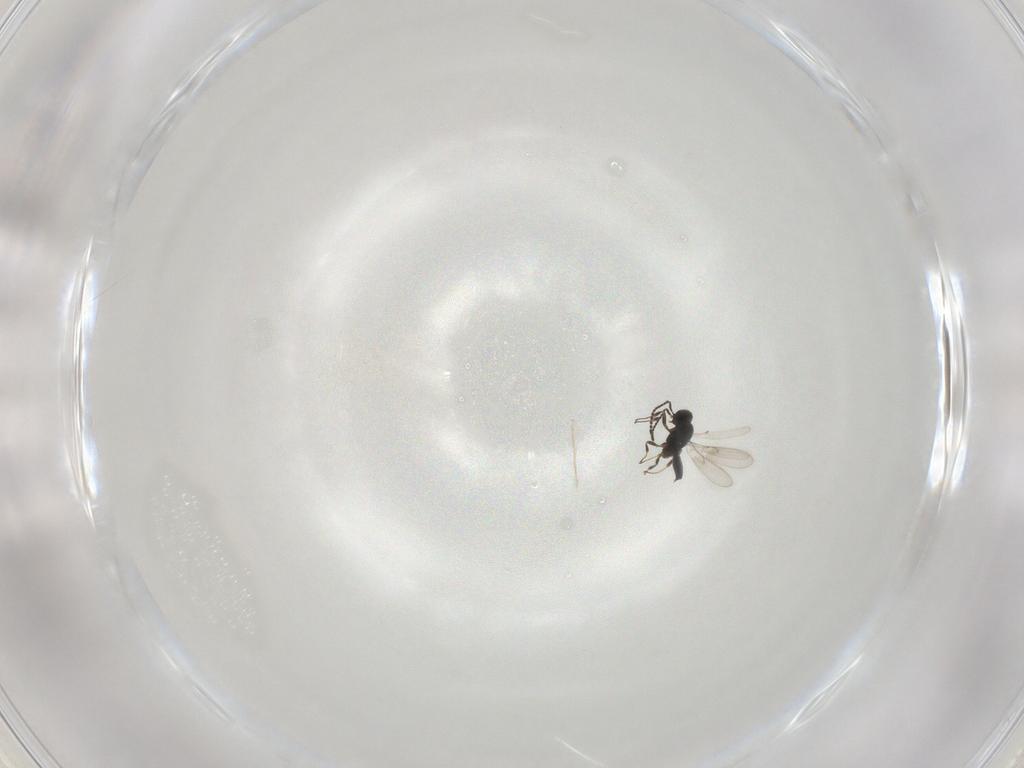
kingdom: Animalia
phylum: Arthropoda
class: Insecta
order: Hymenoptera
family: Scelionidae
